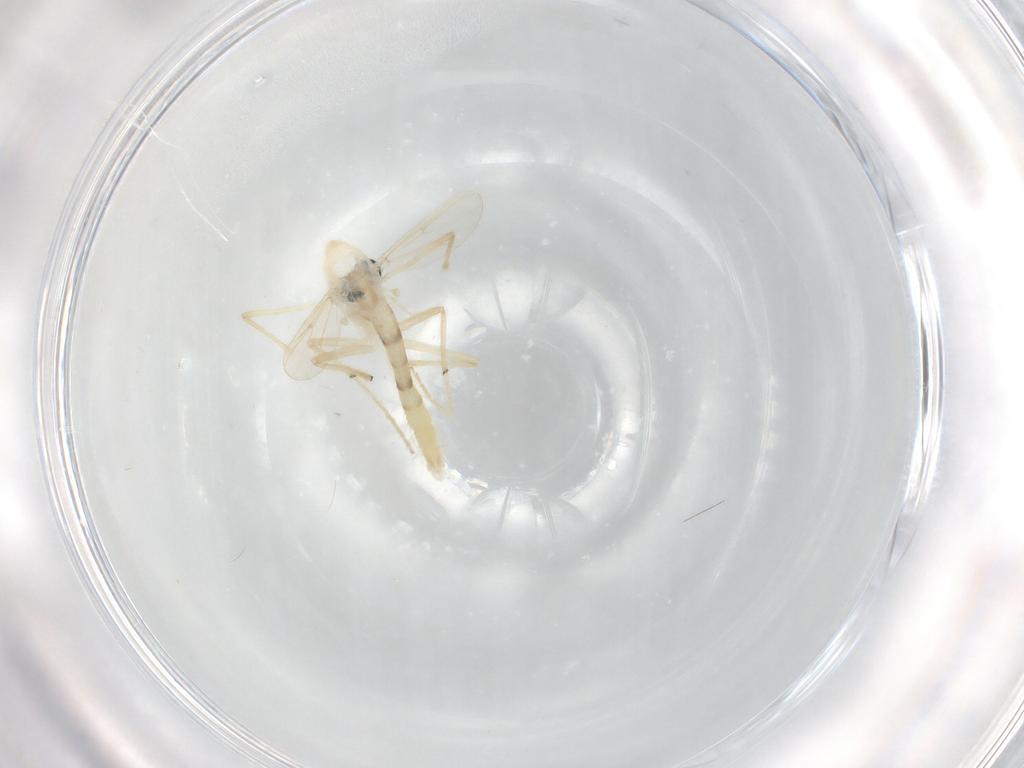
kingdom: Animalia
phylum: Arthropoda
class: Insecta
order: Diptera
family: Chironomidae
